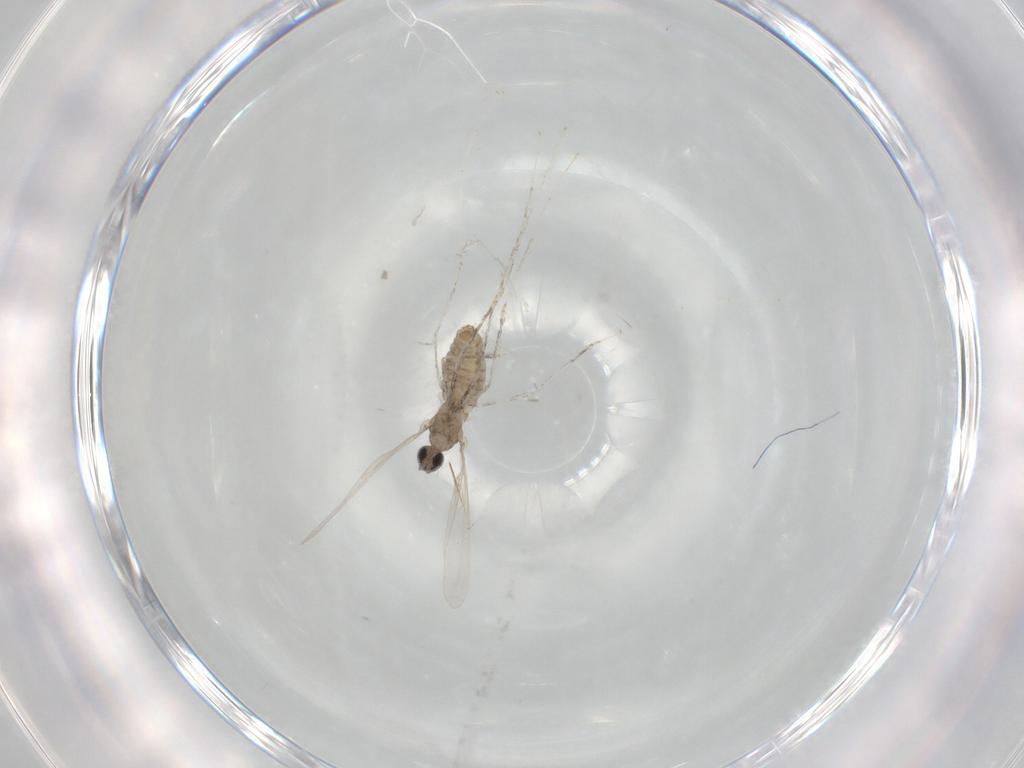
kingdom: Animalia
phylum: Arthropoda
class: Insecta
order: Diptera
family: Cecidomyiidae
